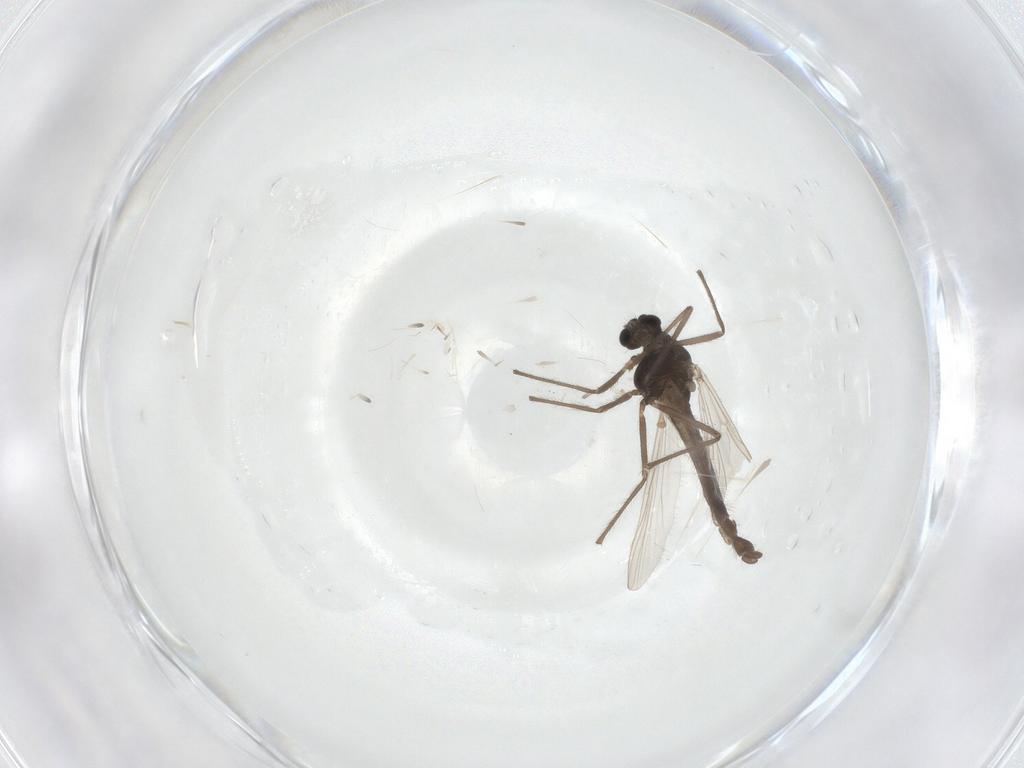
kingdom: Animalia
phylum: Arthropoda
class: Insecta
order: Diptera
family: Chironomidae
